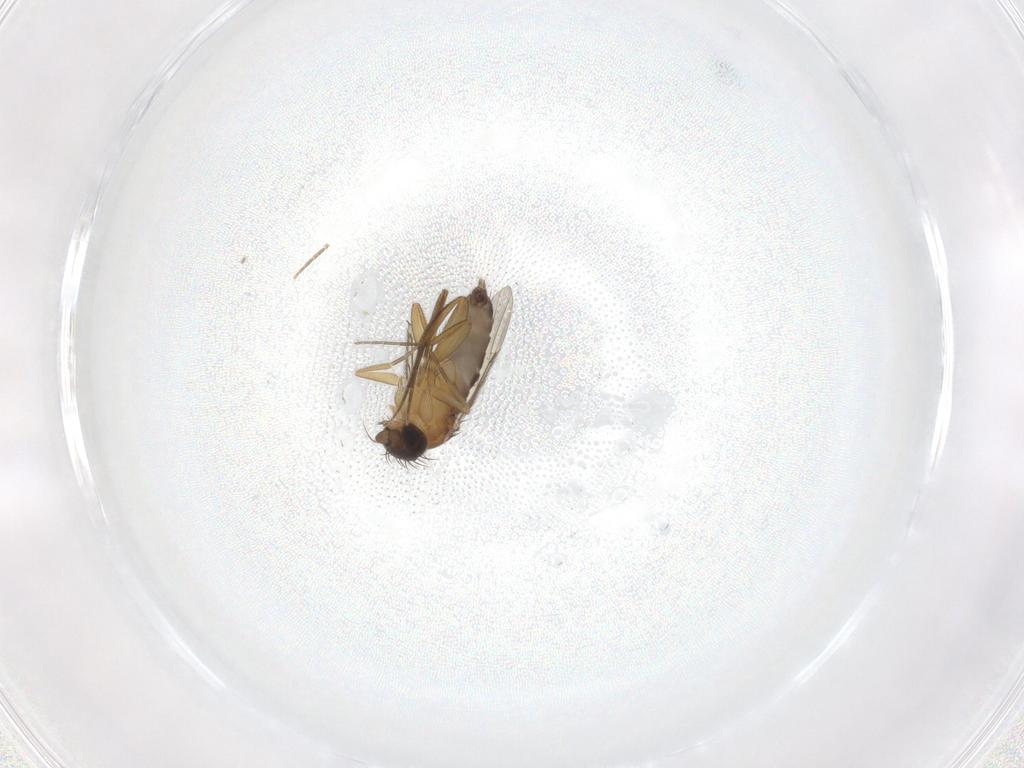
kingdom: Animalia
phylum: Arthropoda
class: Insecta
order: Diptera
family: Phoridae
